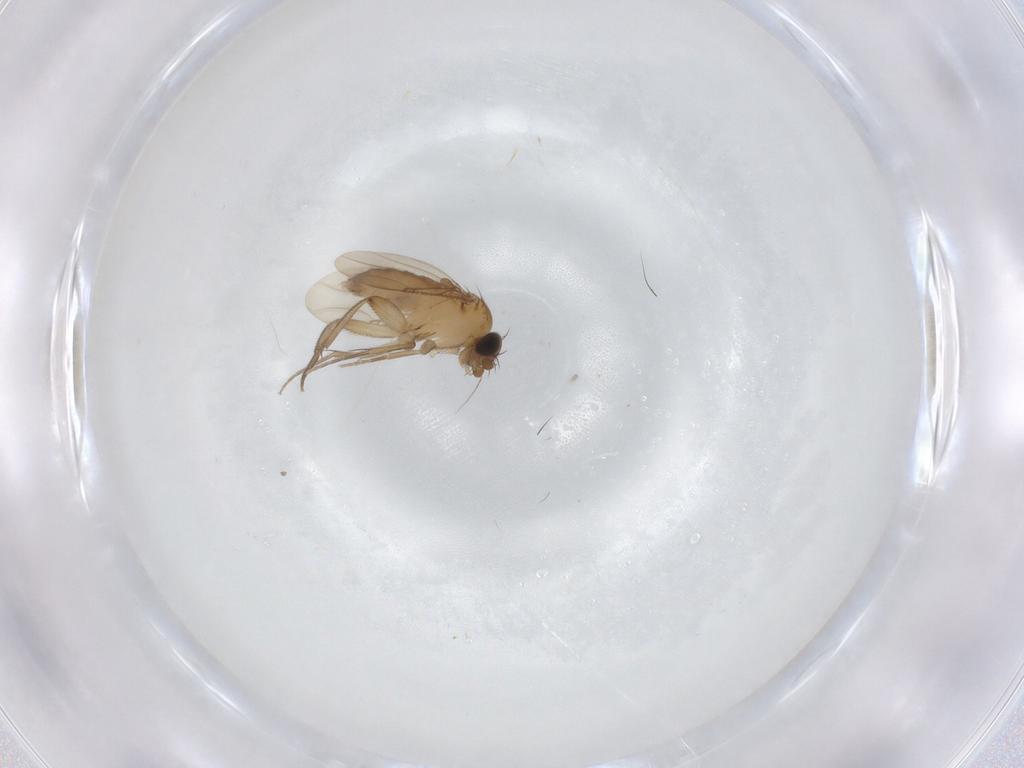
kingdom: Animalia
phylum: Arthropoda
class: Insecta
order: Diptera
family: Phoridae
